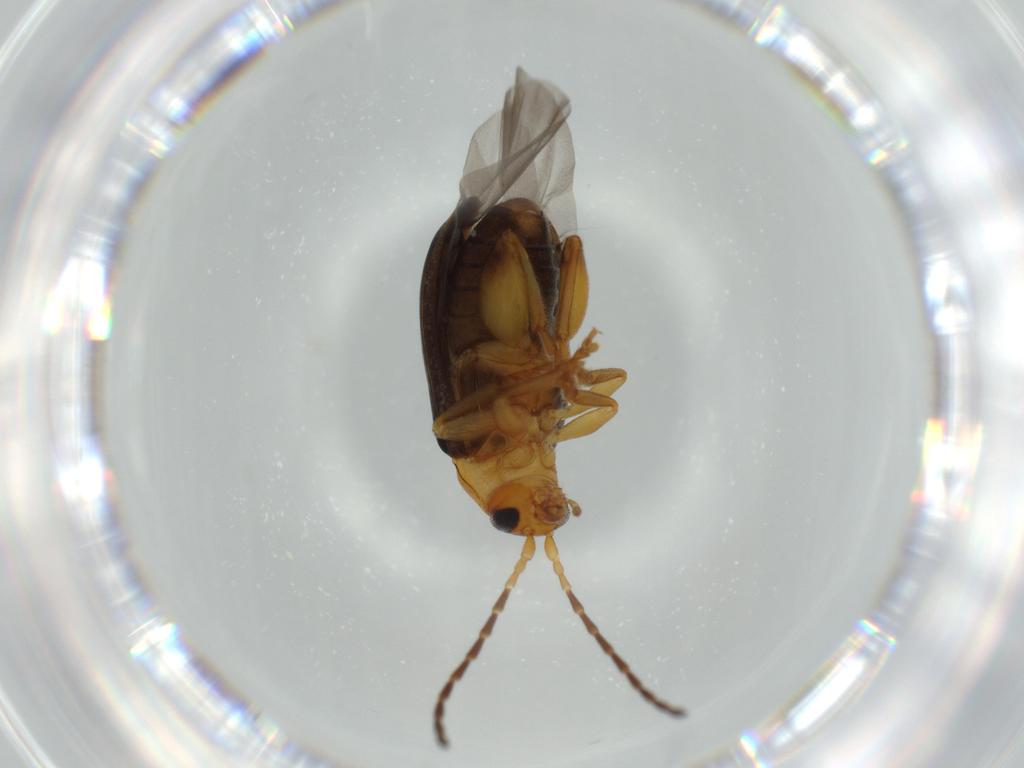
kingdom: Animalia
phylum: Arthropoda
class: Insecta
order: Coleoptera
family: Chrysomelidae
